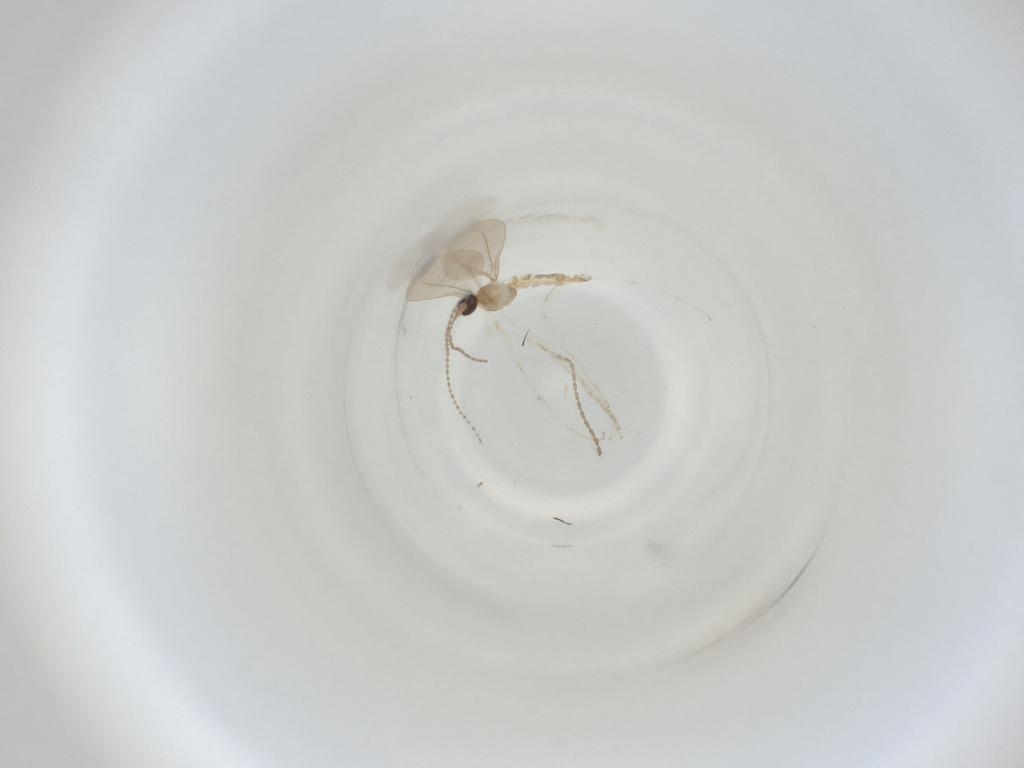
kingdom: Animalia
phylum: Arthropoda
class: Insecta
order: Diptera
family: Cecidomyiidae
